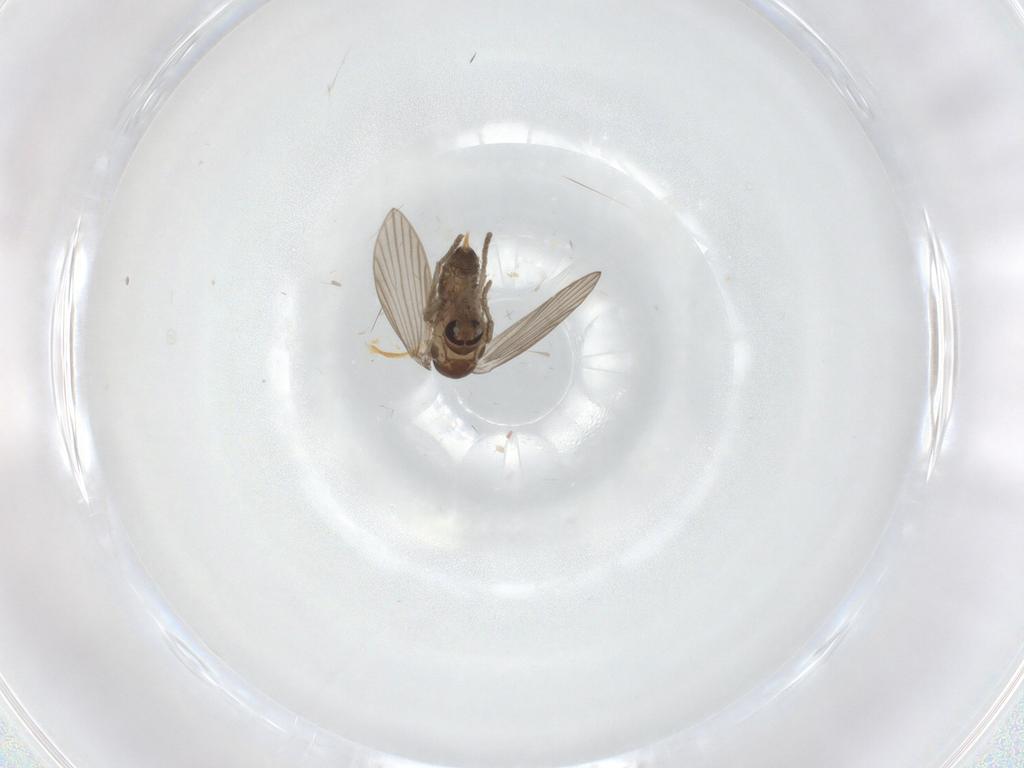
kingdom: Animalia
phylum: Arthropoda
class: Insecta
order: Diptera
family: Psychodidae
